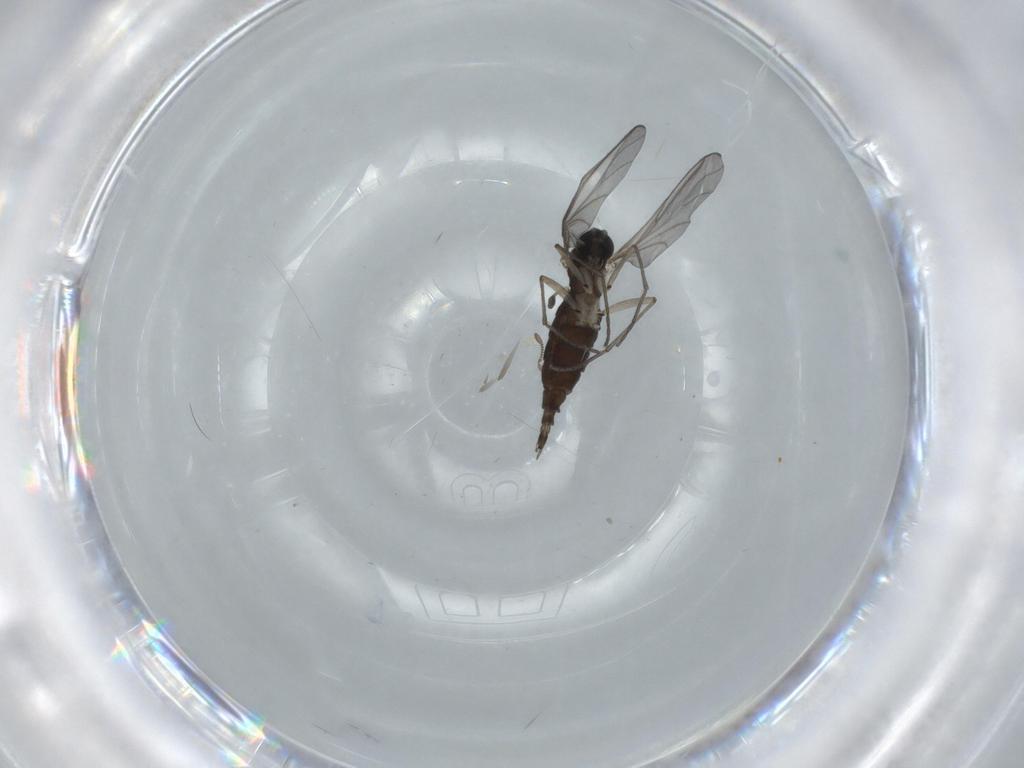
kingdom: Animalia
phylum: Arthropoda
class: Insecta
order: Diptera
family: Cecidomyiidae
